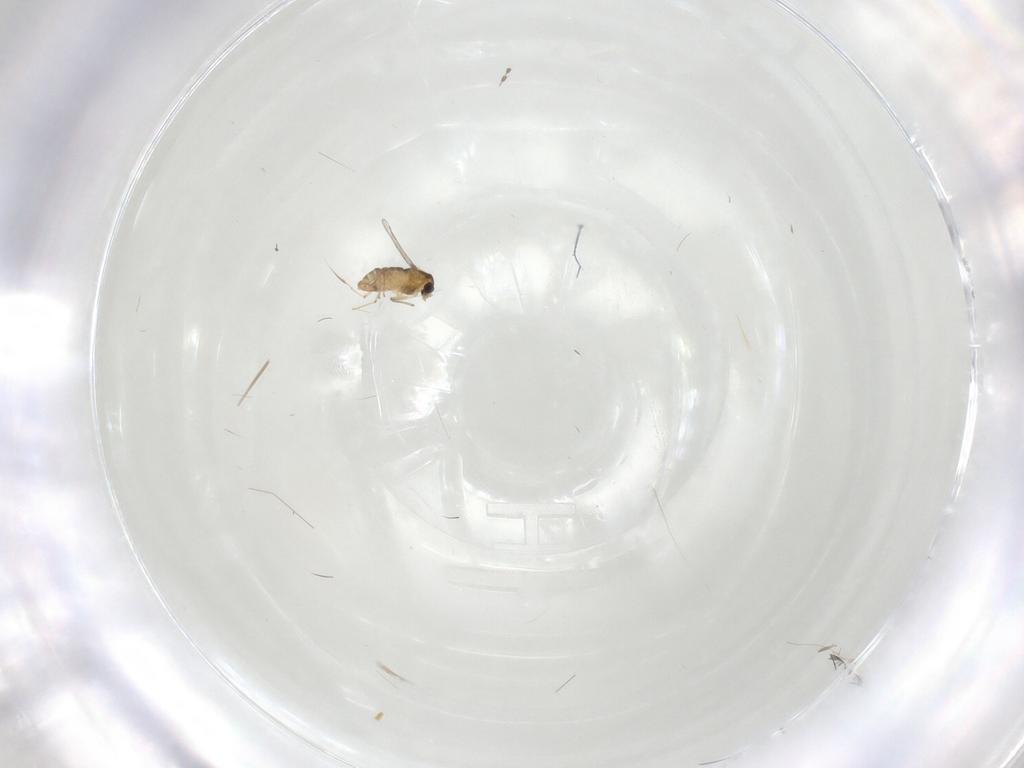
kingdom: Animalia
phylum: Arthropoda
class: Insecta
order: Diptera
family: Chironomidae
